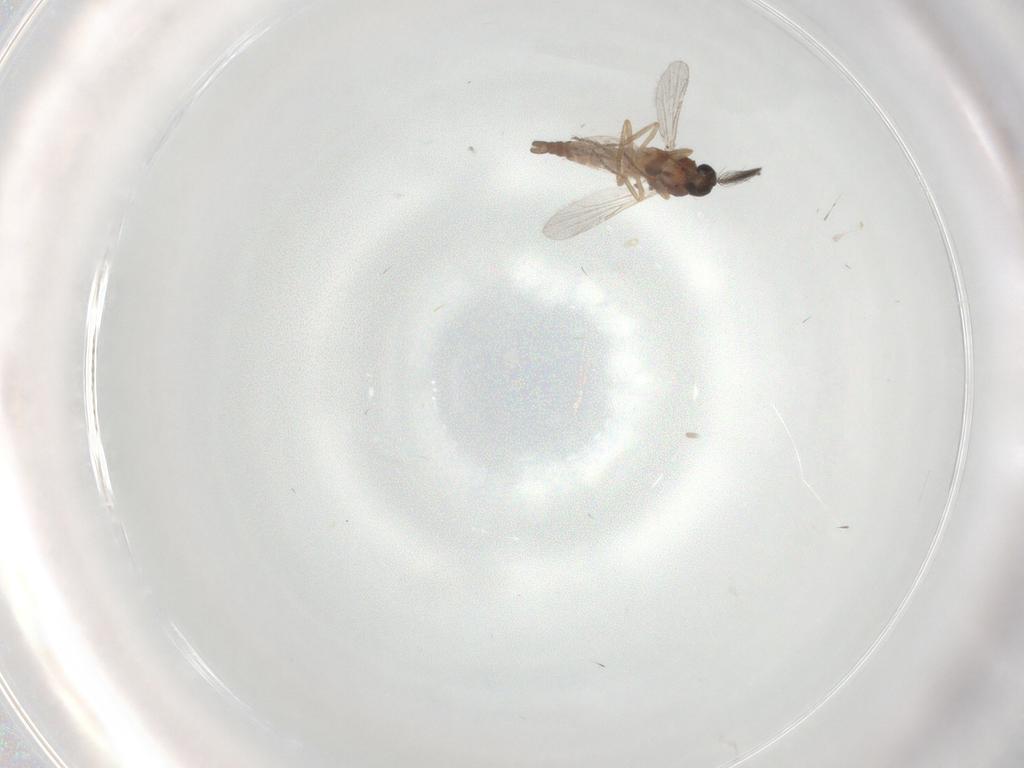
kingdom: Animalia
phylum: Arthropoda
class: Insecta
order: Diptera
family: Ceratopogonidae
